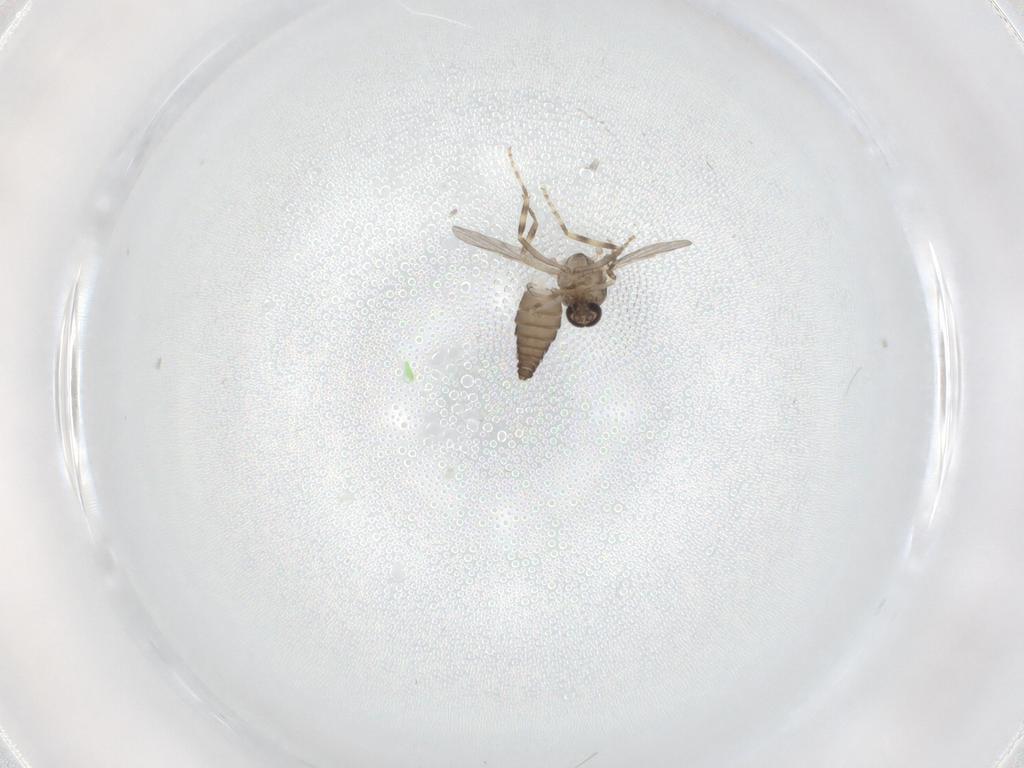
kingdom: Animalia
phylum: Arthropoda
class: Insecta
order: Diptera
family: Ceratopogonidae
